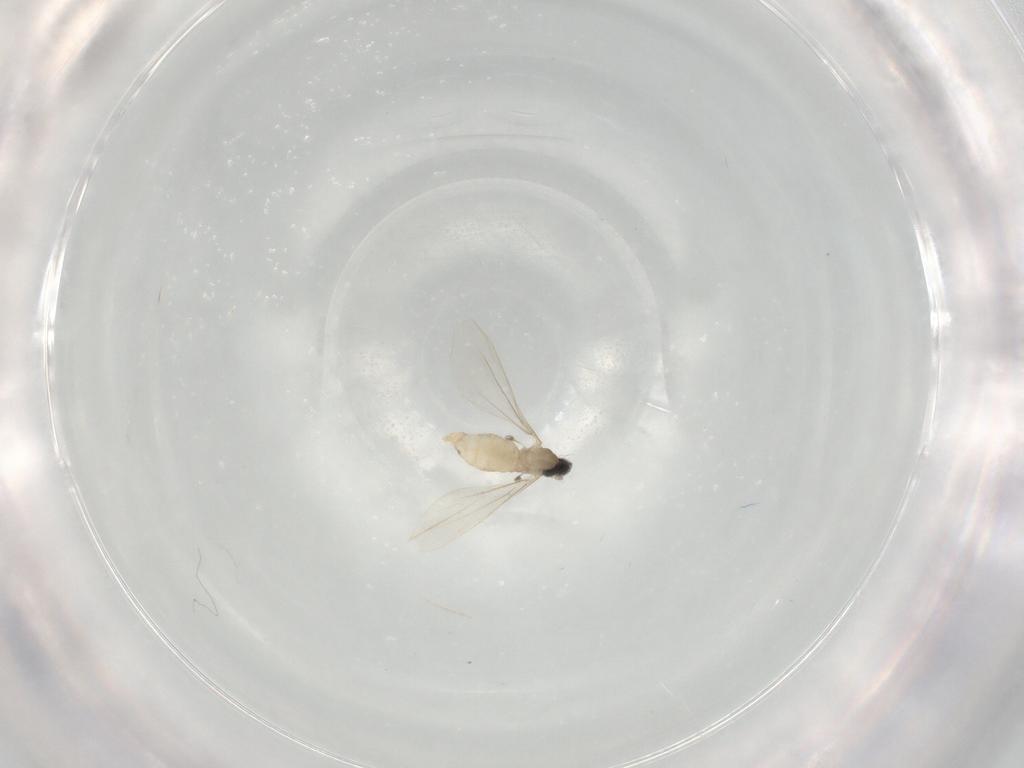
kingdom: Animalia
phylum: Arthropoda
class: Insecta
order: Diptera
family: Cecidomyiidae
